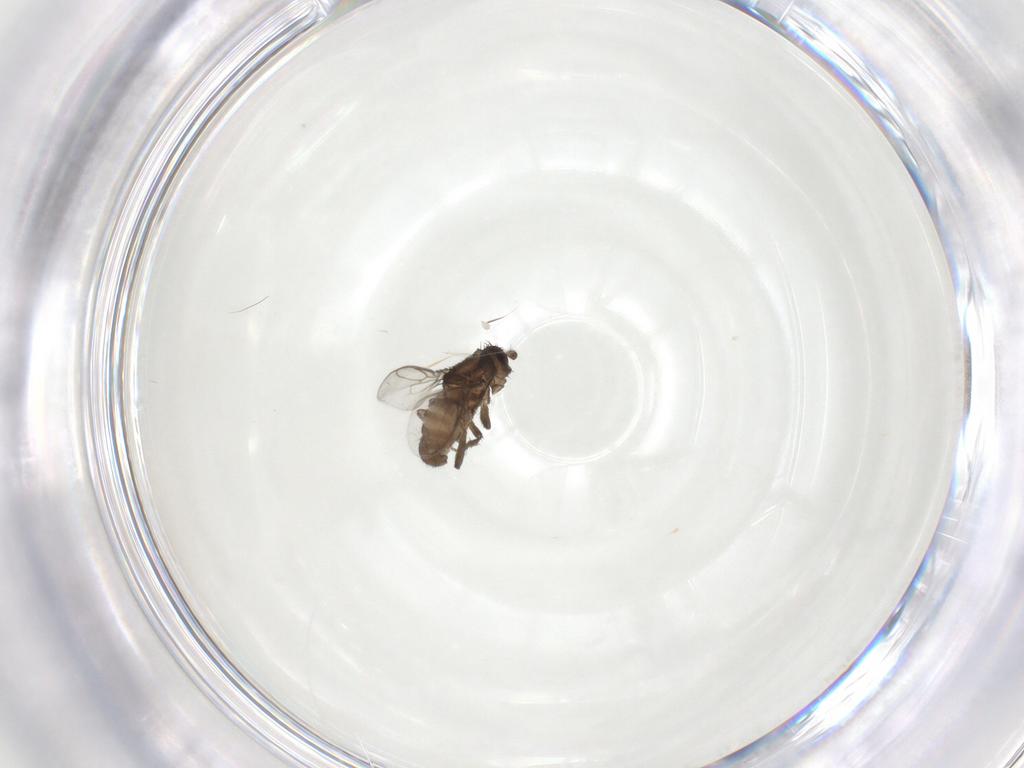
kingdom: Animalia
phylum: Arthropoda
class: Insecta
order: Diptera
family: Sphaeroceridae
